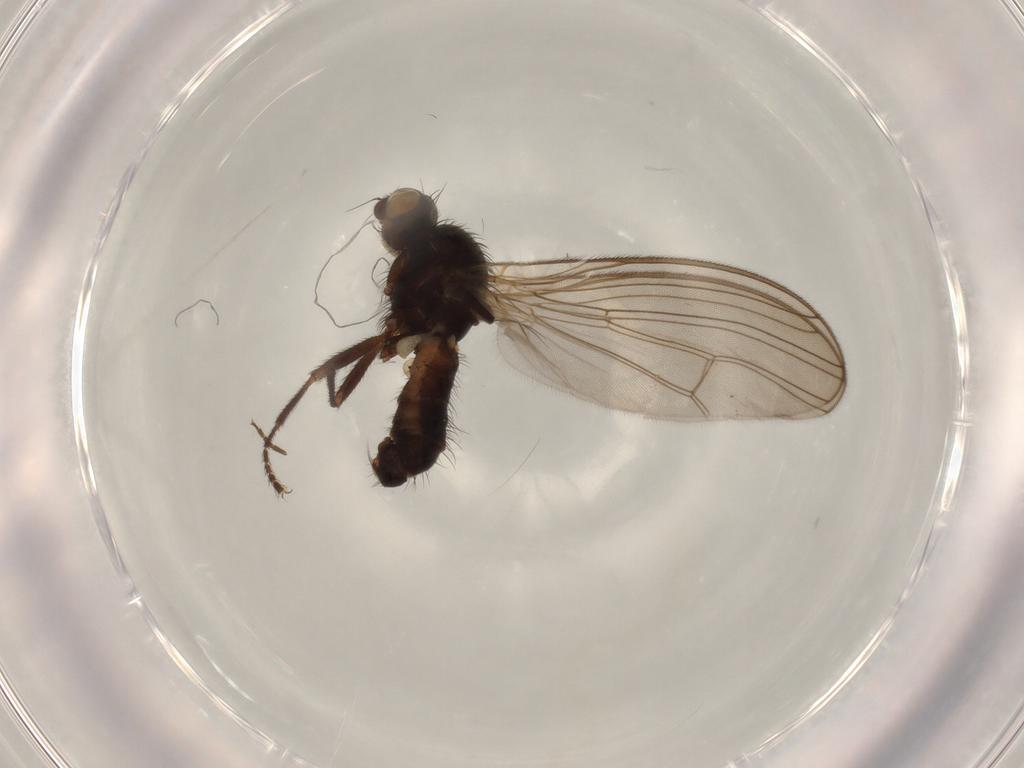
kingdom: Animalia
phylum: Arthropoda
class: Insecta
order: Diptera
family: Heleomyzidae
